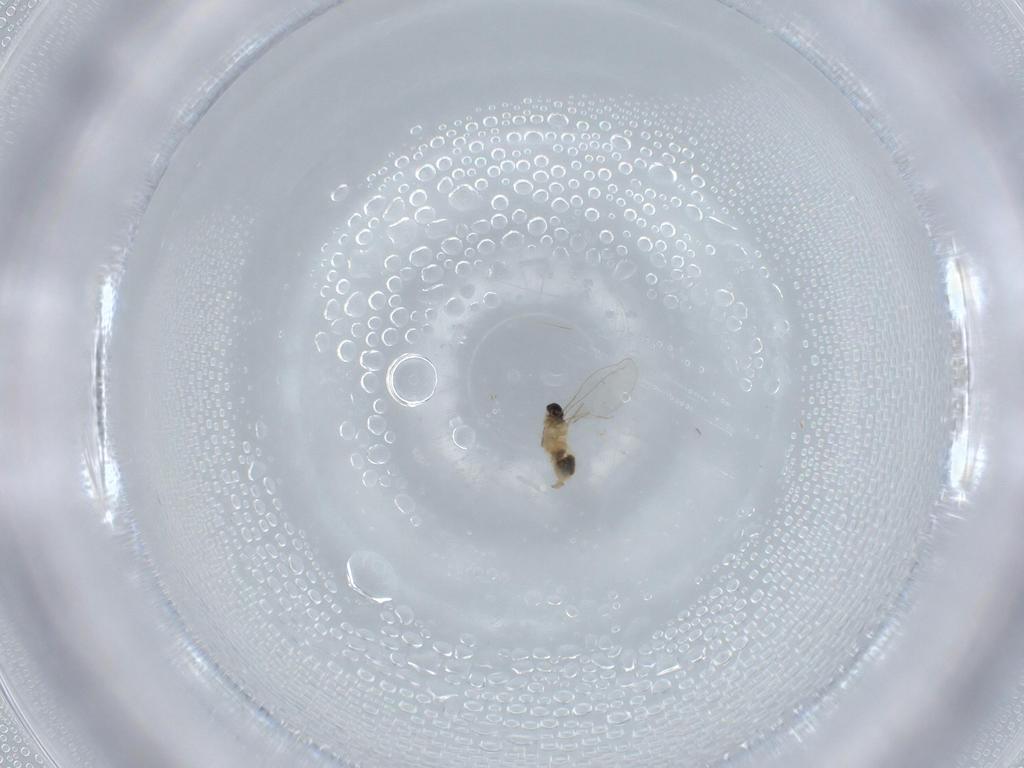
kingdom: Animalia
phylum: Arthropoda
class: Insecta
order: Diptera
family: Cecidomyiidae
